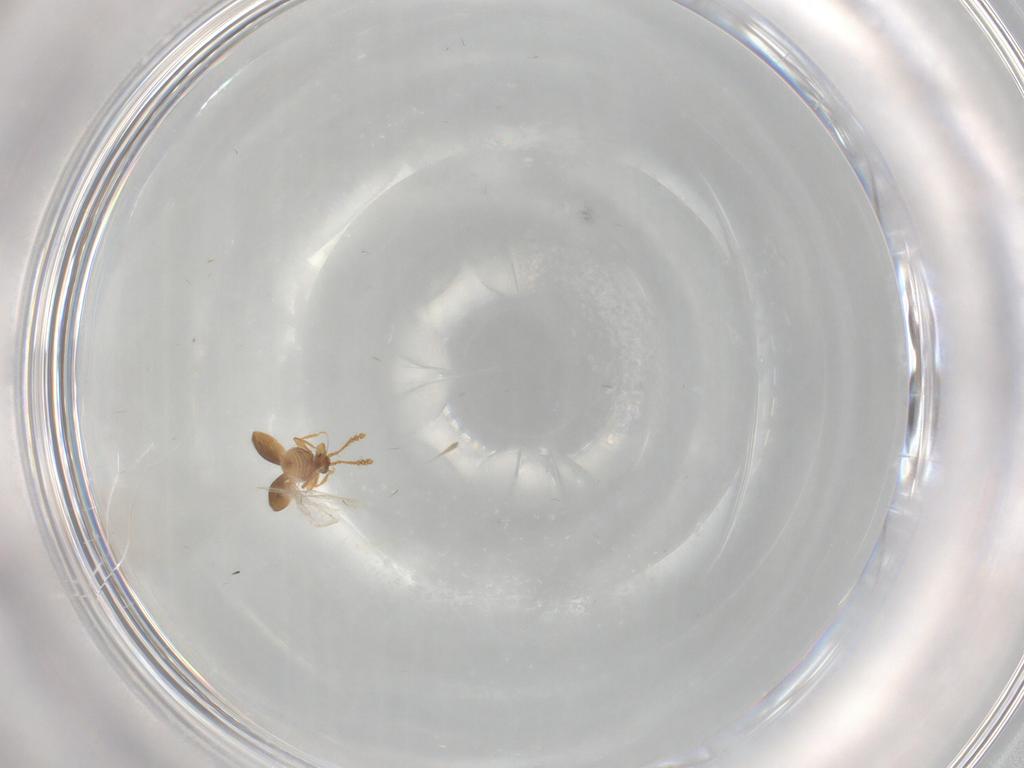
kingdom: Animalia
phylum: Arthropoda
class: Insecta
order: Coleoptera
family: Staphylinidae
